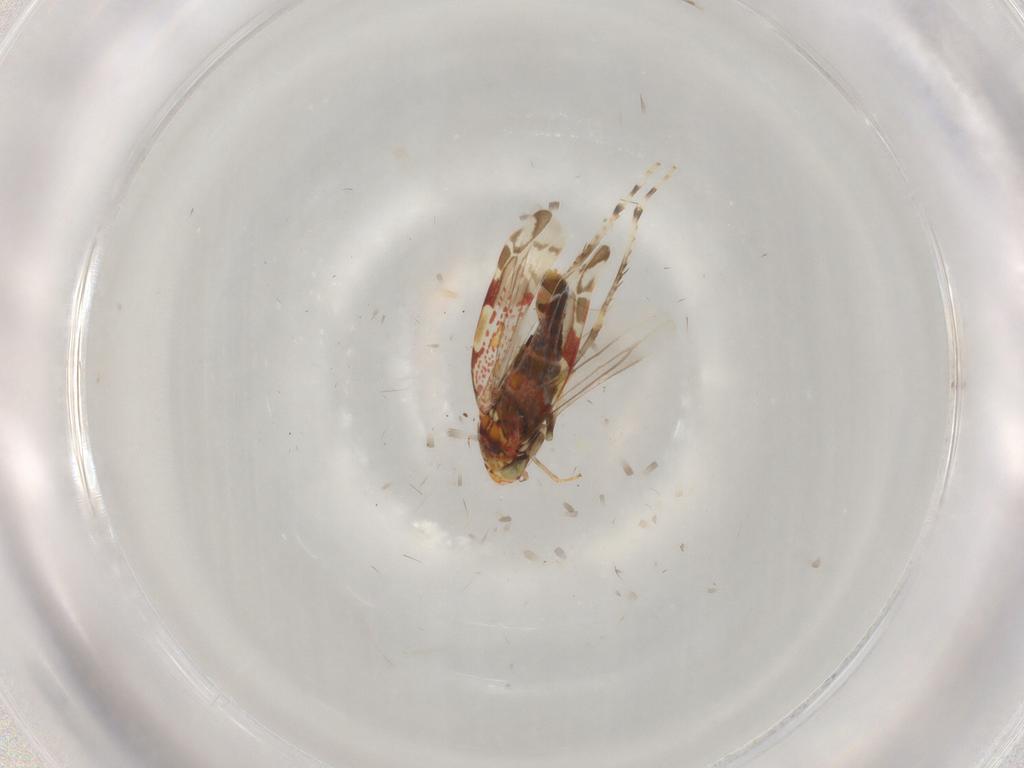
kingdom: Animalia
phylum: Arthropoda
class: Insecta
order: Hemiptera
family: Cicadellidae
